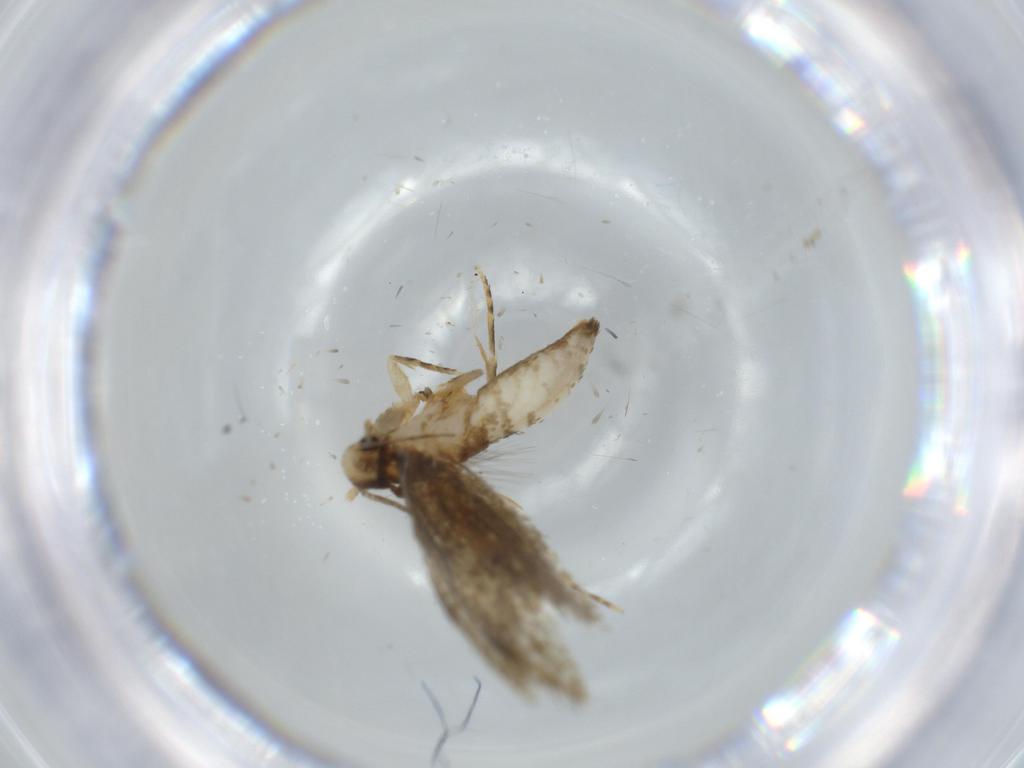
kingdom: Animalia
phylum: Arthropoda
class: Insecta
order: Lepidoptera
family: Tineidae
